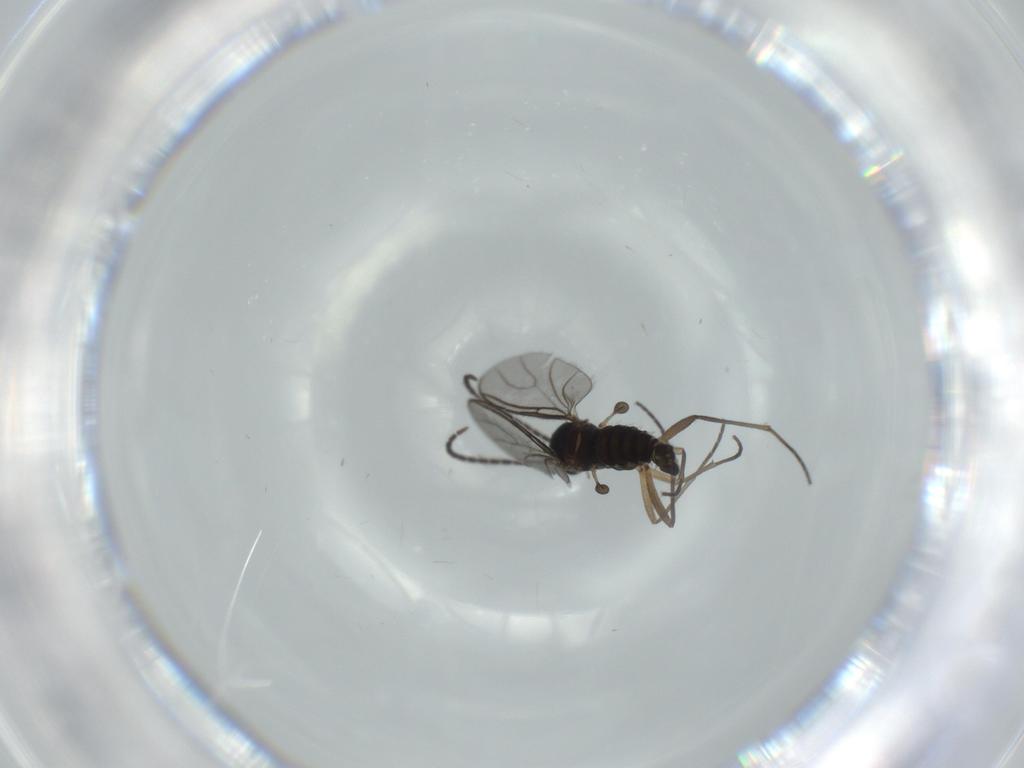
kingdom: Animalia
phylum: Arthropoda
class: Insecta
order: Diptera
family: Sciaridae
